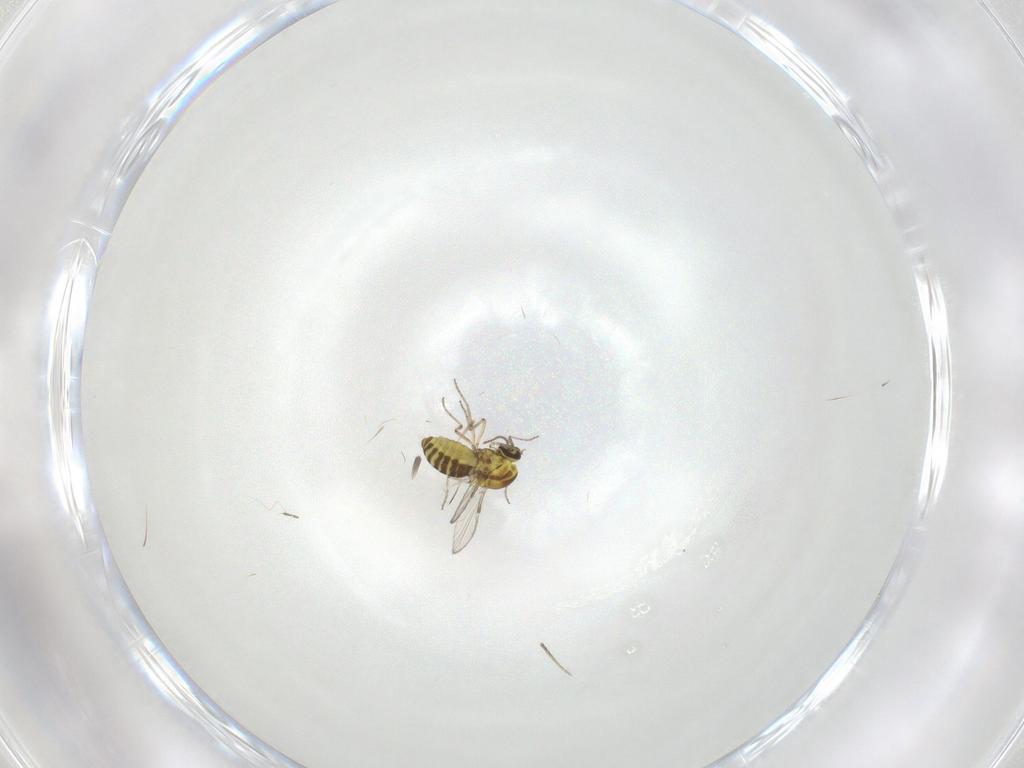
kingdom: Animalia
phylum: Arthropoda
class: Insecta
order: Diptera
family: Cecidomyiidae
